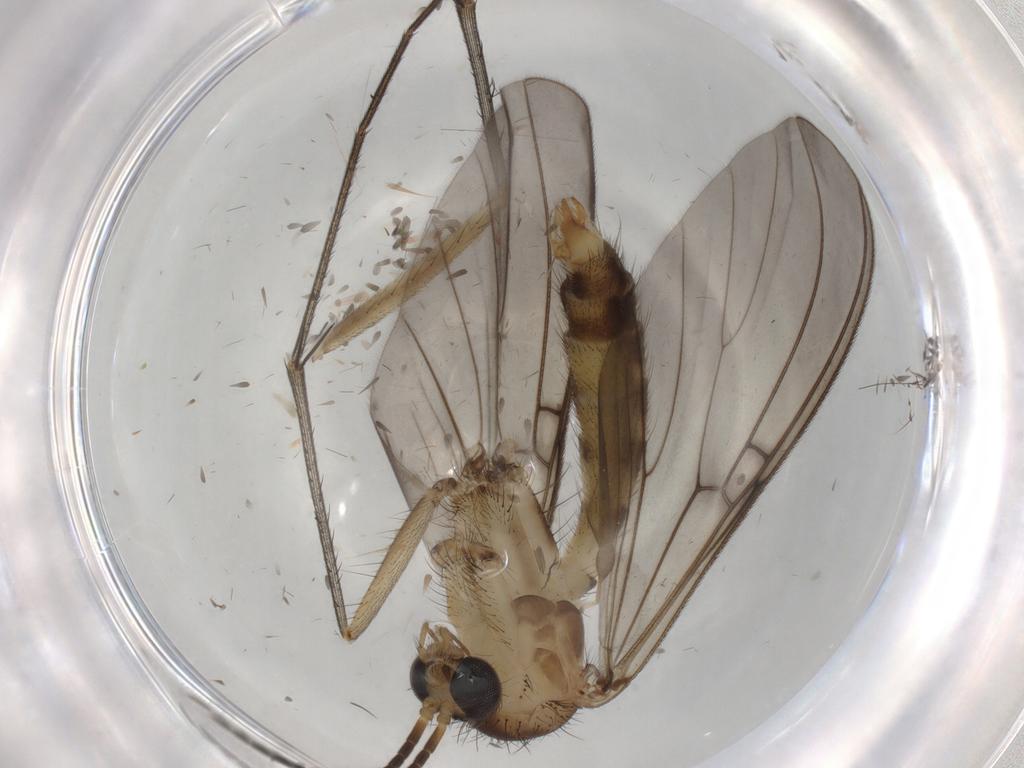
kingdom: Animalia
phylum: Arthropoda
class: Insecta
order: Diptera
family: Mycetophilidae
